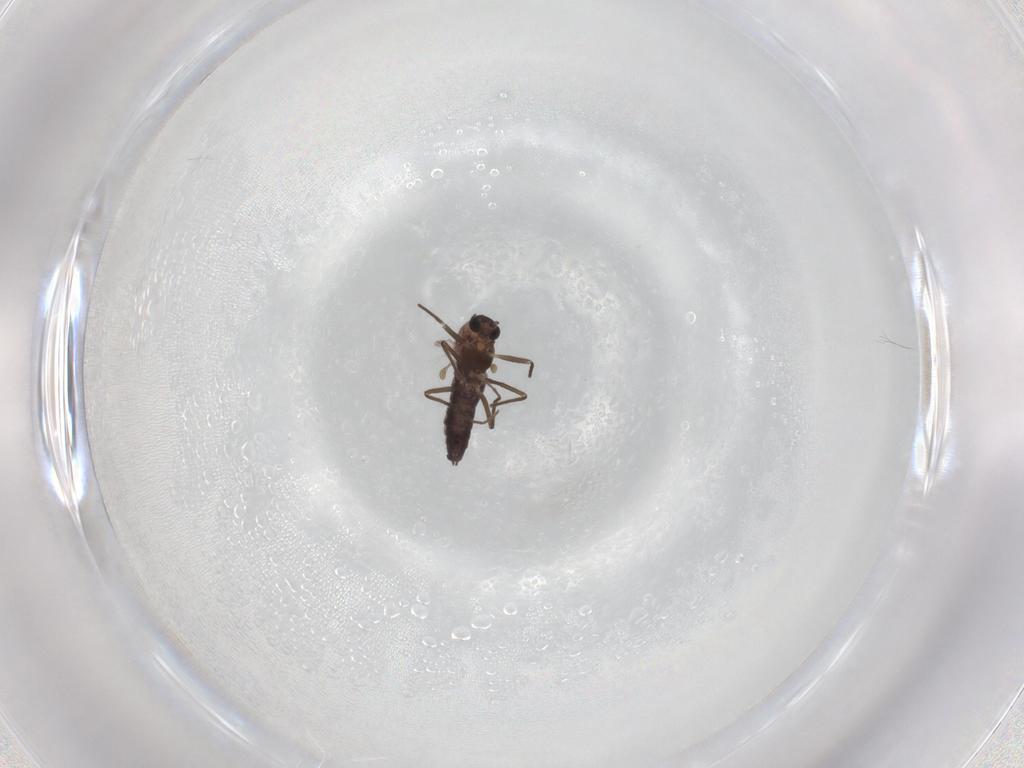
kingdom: Animalia
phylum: Arthropoda
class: Insecta
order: Diptera
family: Chironomidae
